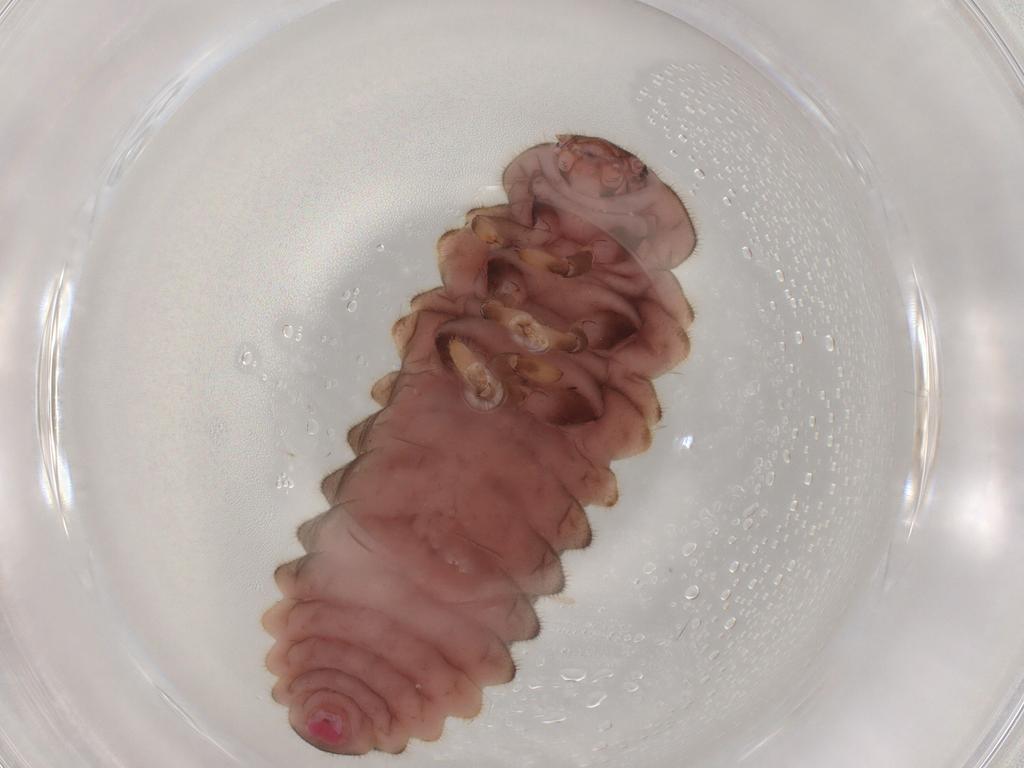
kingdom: Animalia
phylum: Arthropoda
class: Insecta
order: Coleoptera
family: Coccinellidae
